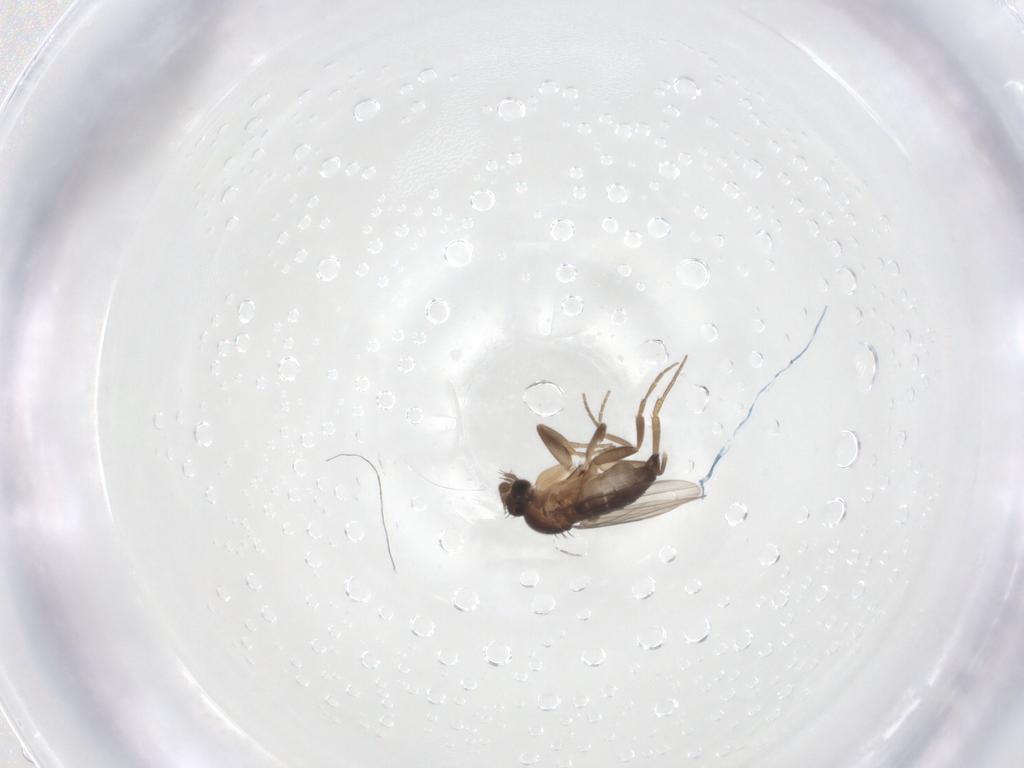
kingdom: Animalia
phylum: Arthropoda
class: Insecta
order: Diptera
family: Phoridae
